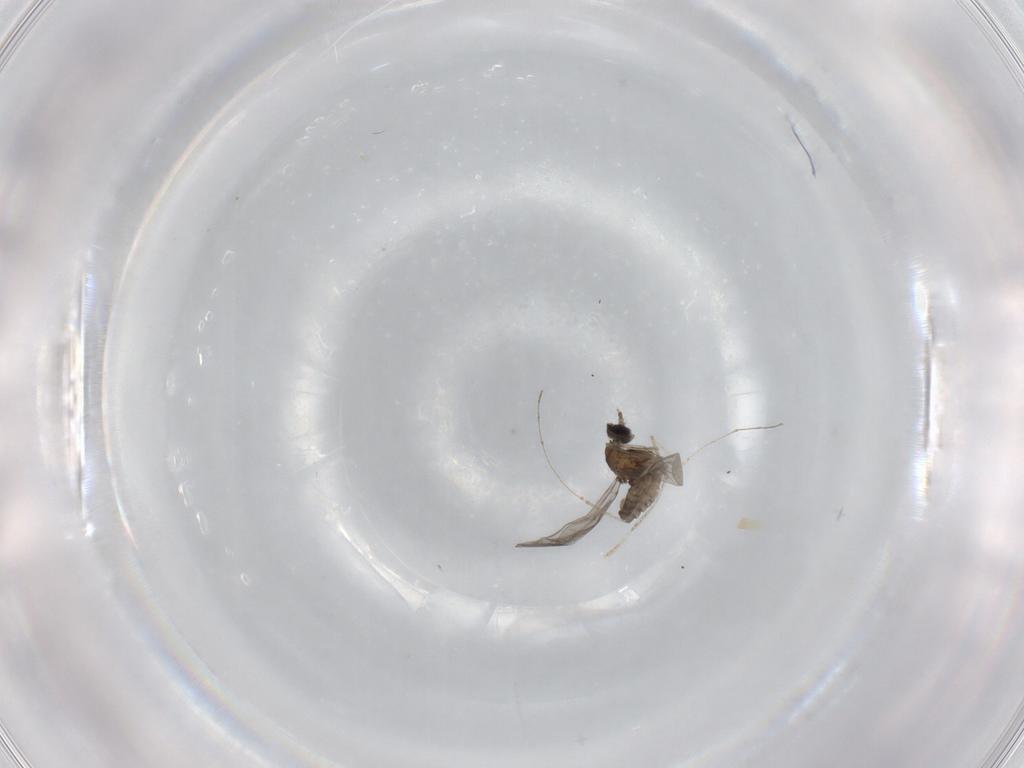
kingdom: Animalia
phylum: Arthropoda
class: Insecta
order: Diptera
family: Cecidomyiidae
